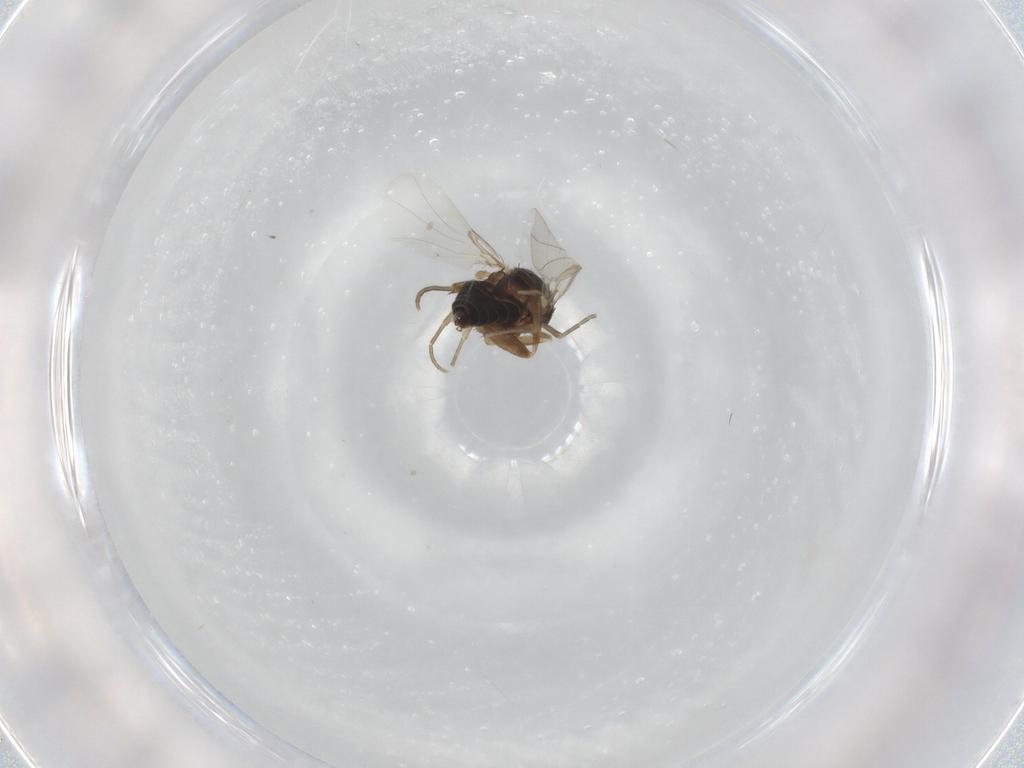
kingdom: Animalia
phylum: Arthropoda
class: Insecta
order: Diptera
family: Phoridae
